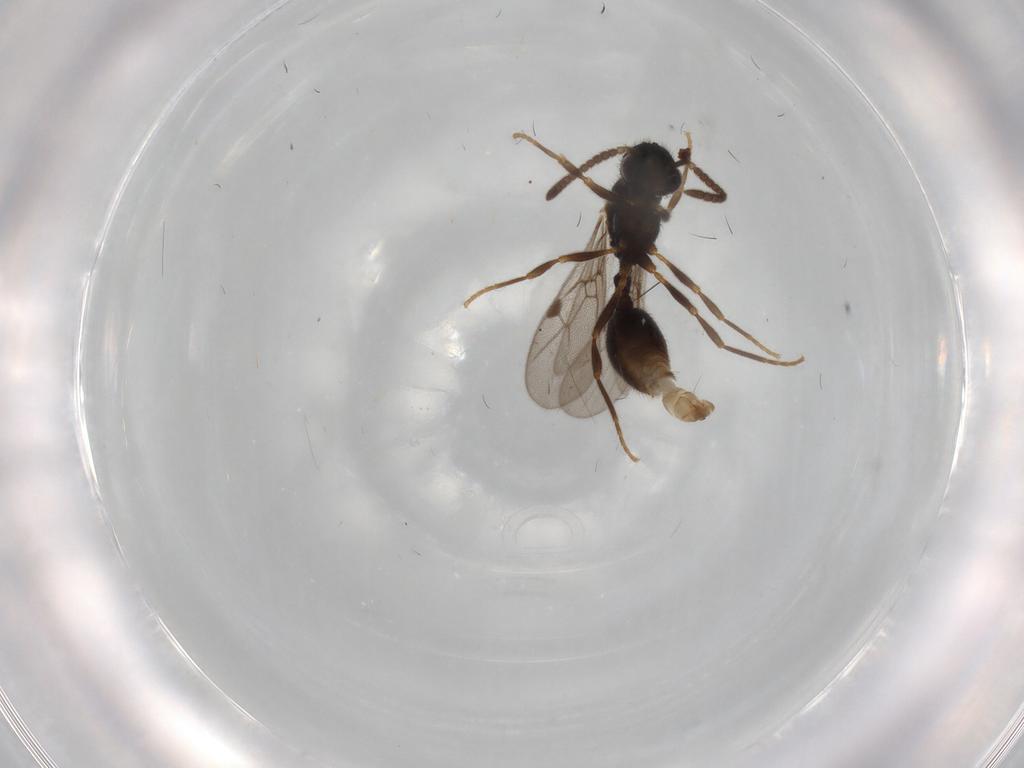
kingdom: Animalia
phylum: Arthropoda
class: Insecta
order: Hymenoptera
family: Formicidae
